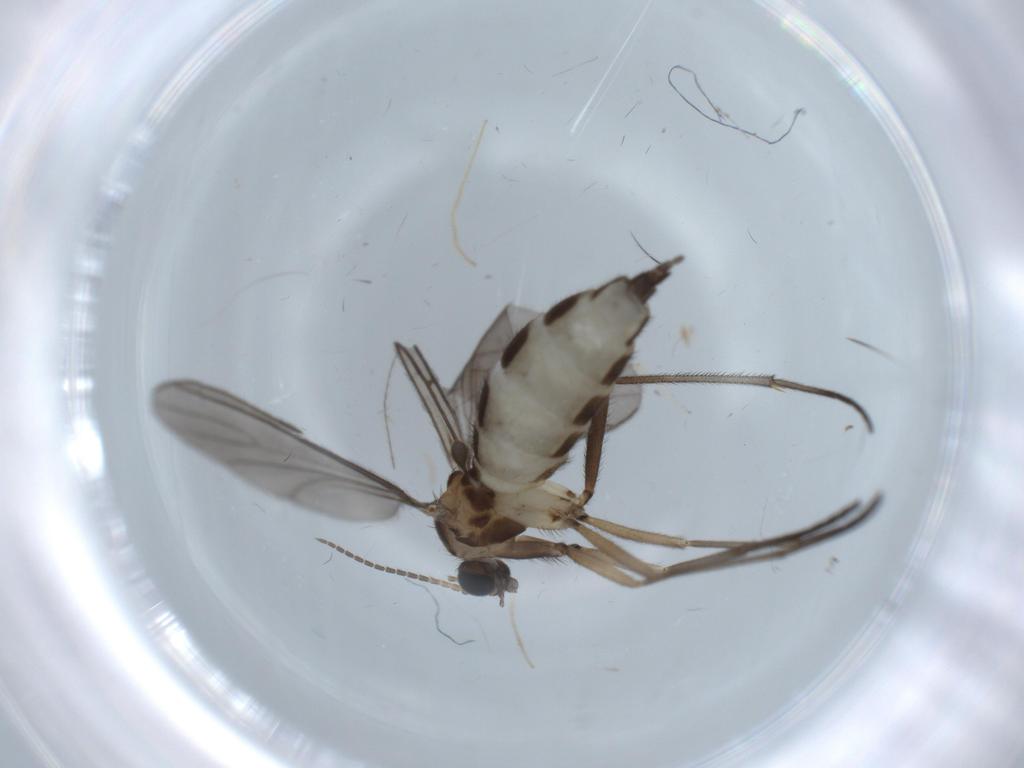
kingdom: Animalia
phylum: Arthropoda
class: Insecta
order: Diptera
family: Sciaridae
